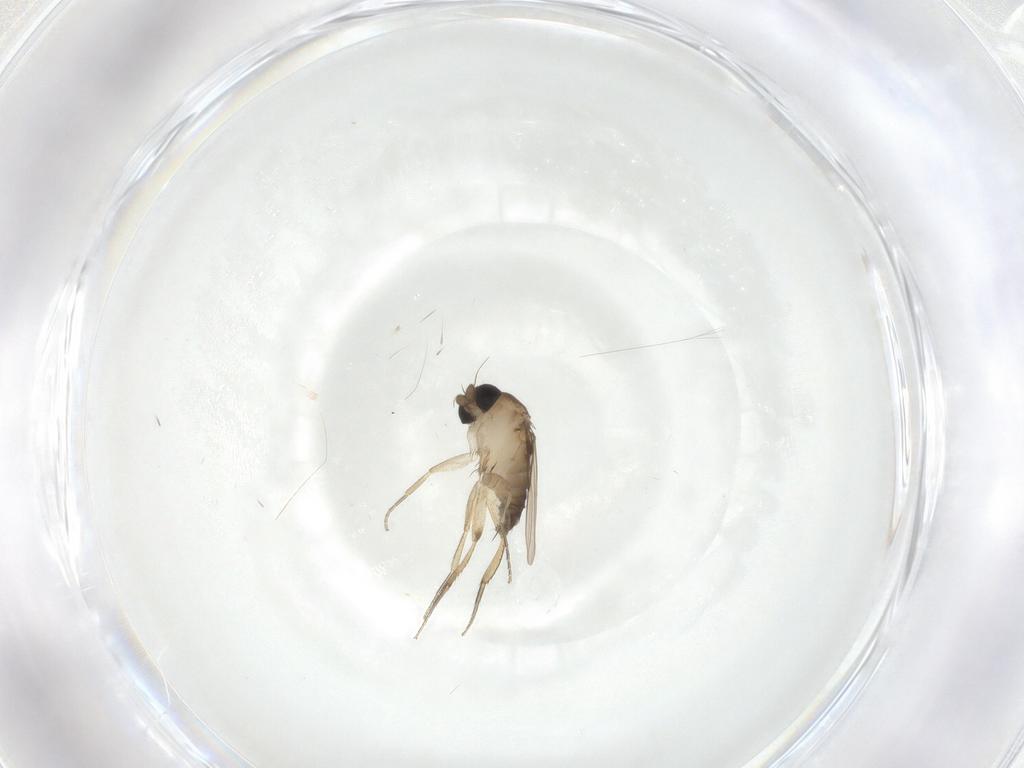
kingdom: Animalia
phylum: Arthropoda
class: Insecta
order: Diptera
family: Phoridae
